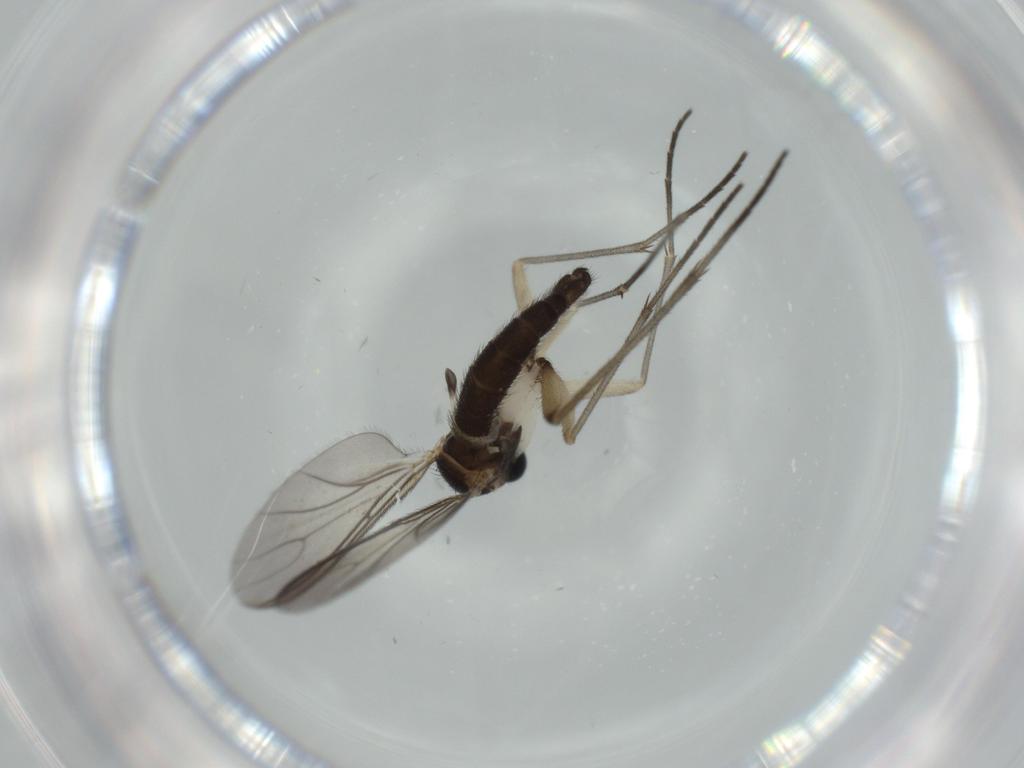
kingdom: Animalia
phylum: Arthropoda
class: Insecta
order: Diptera
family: Sciaridae
